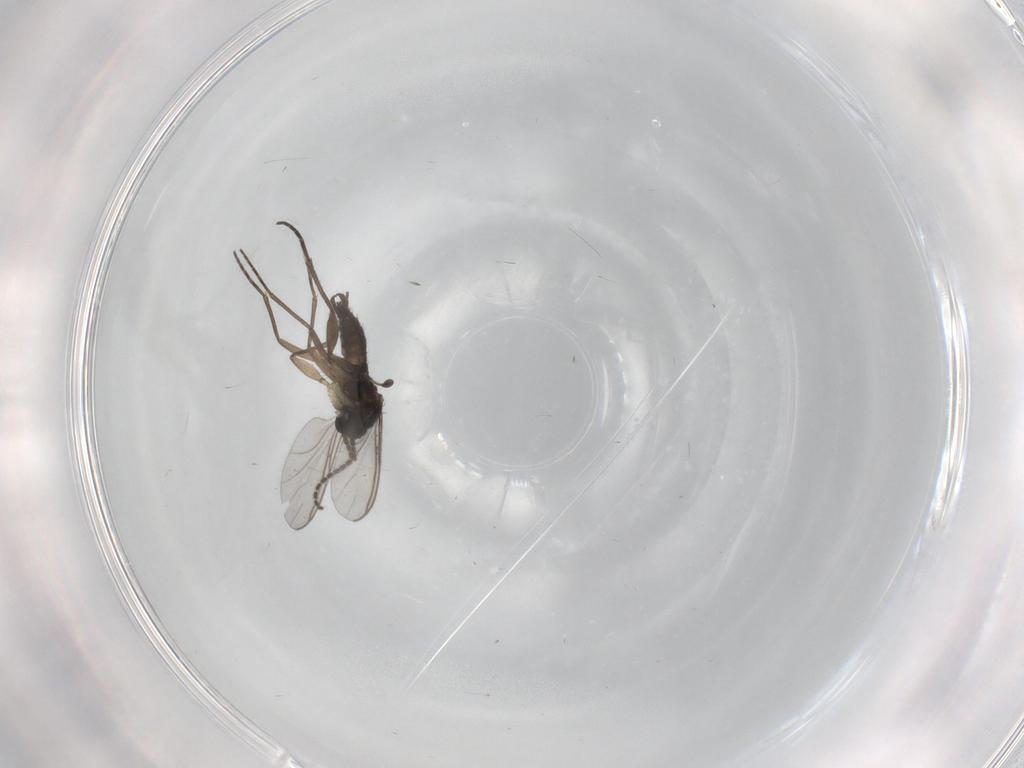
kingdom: Animalia
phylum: Arthropoda
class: Insecta
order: Diptera
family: Sciaridae
